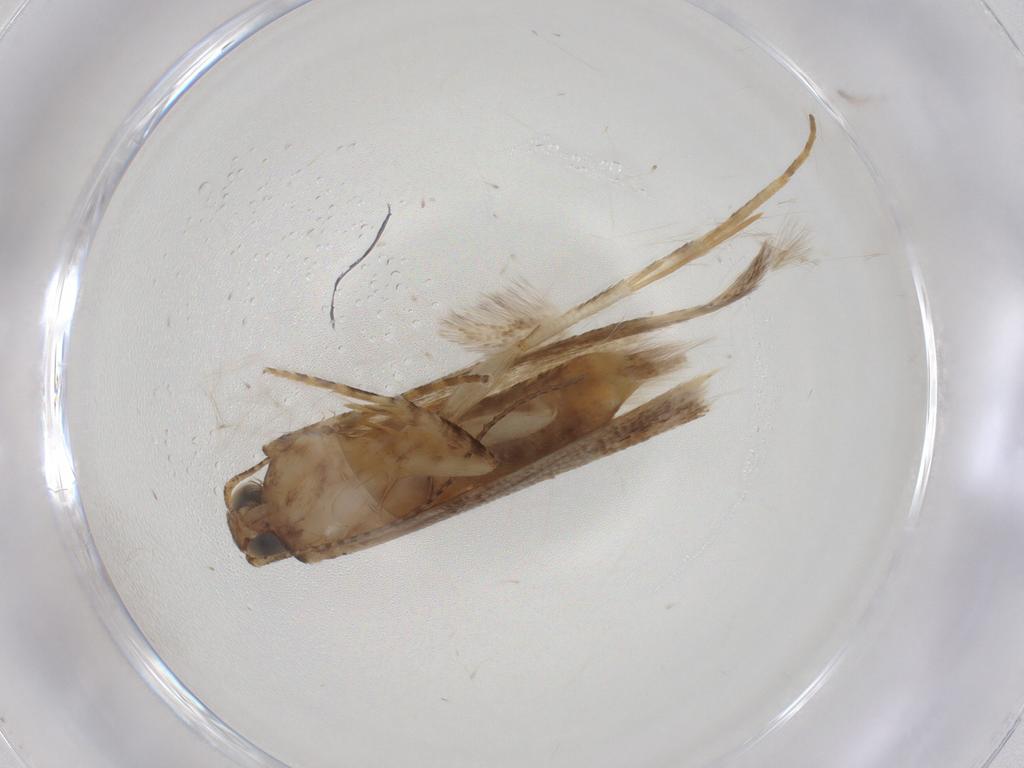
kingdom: Animalia
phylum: Arthropoda
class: Insecta
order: Lepidoptera
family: Gelechiidae
